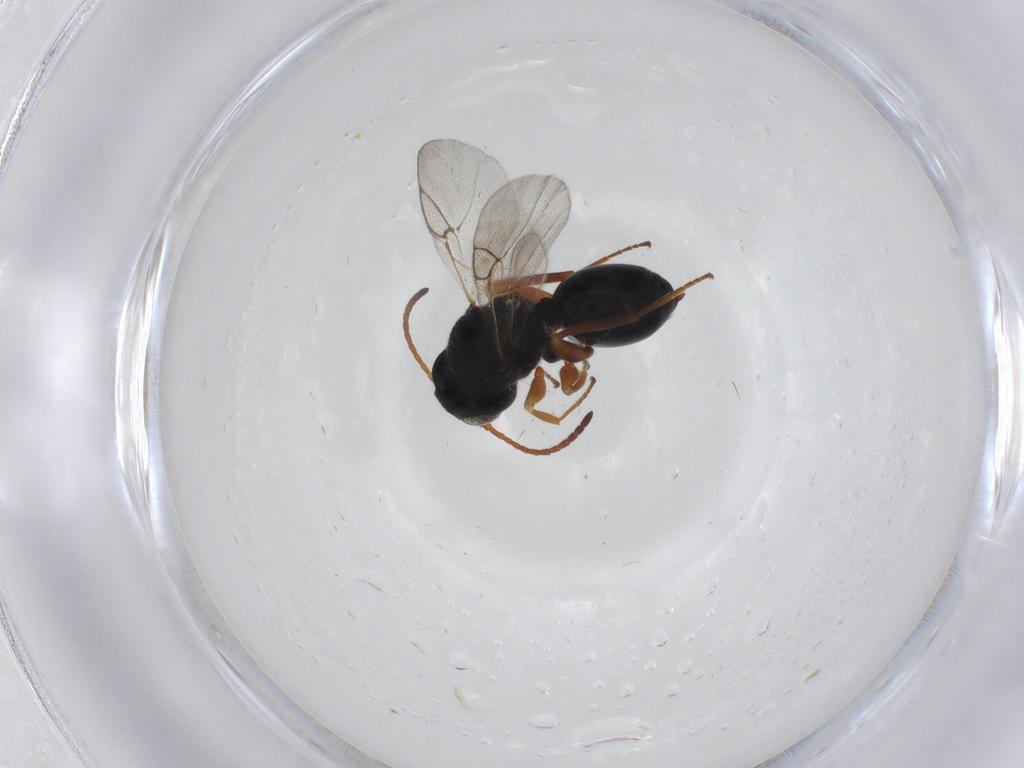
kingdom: Animalia
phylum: Arthropoda
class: Insecta
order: Hymenoptera
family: Cynipidae
